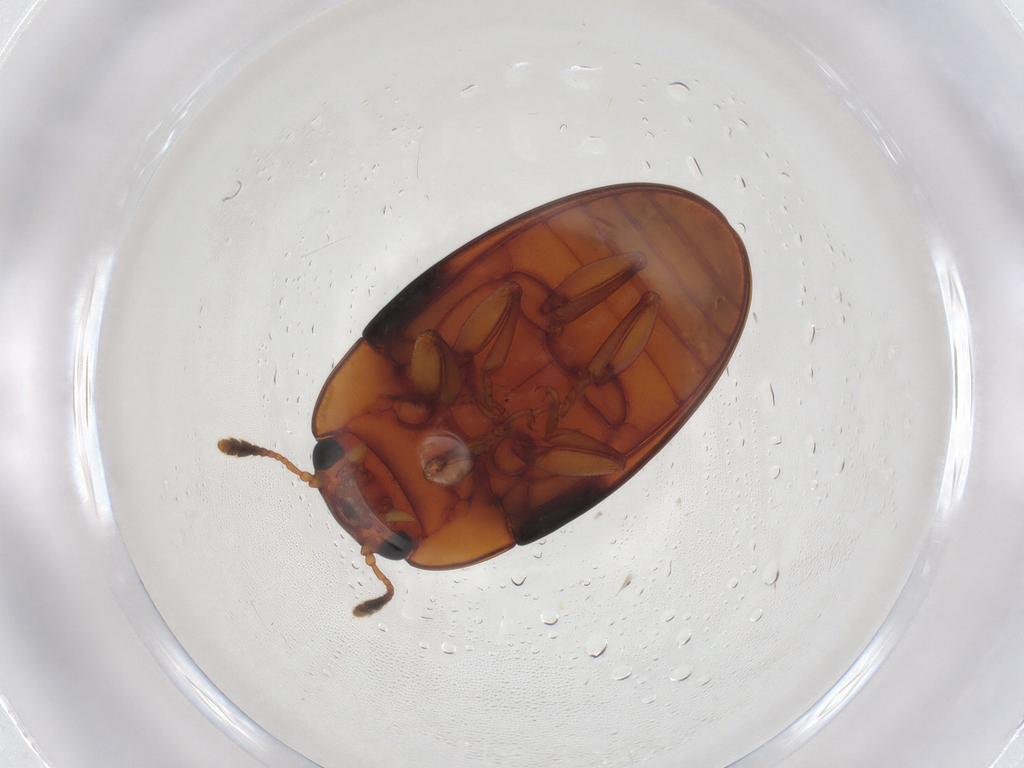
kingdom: Animalia
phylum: Arthropoda
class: Insecta
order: Coleoptera
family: Erotylidae
